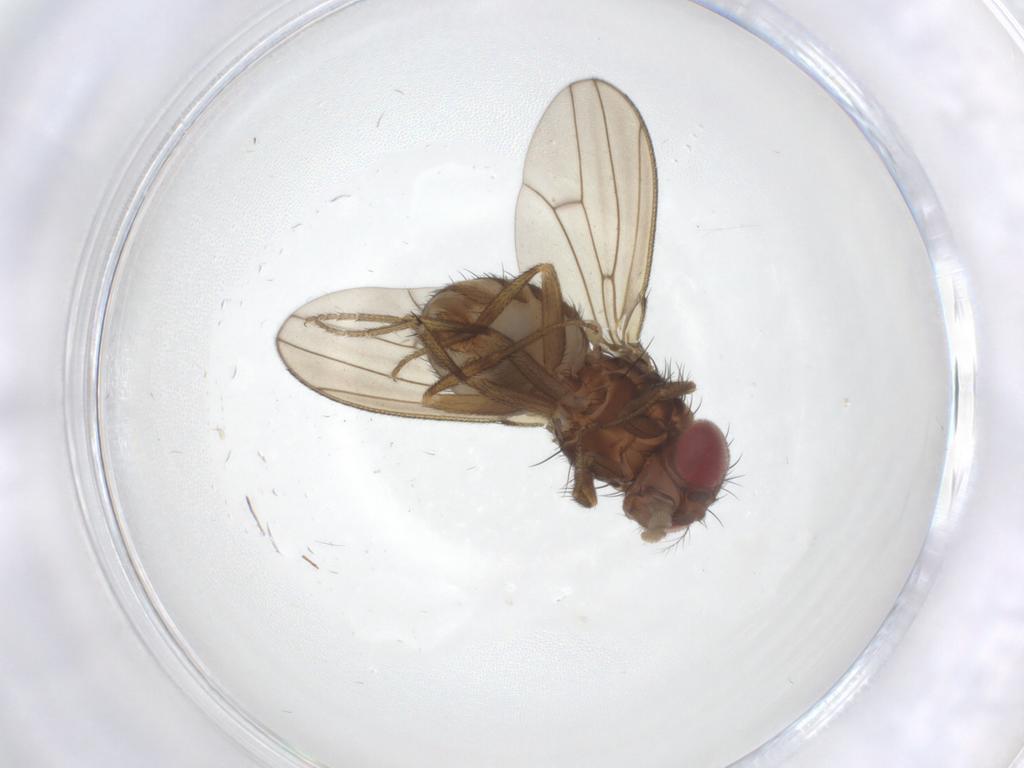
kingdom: Animalia
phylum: Arthropoda
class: Insecta
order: Diptera
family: Drosophilidae
